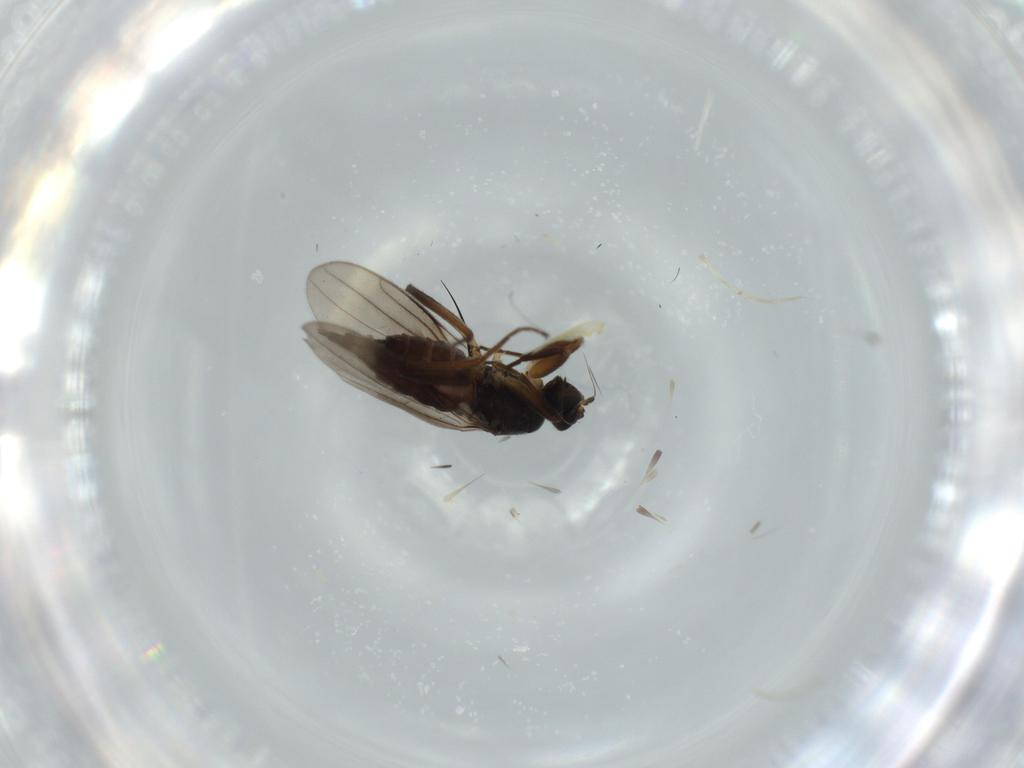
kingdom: Animalia
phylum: Arthropoda
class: Insecta
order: Diptera
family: Hybotidae
